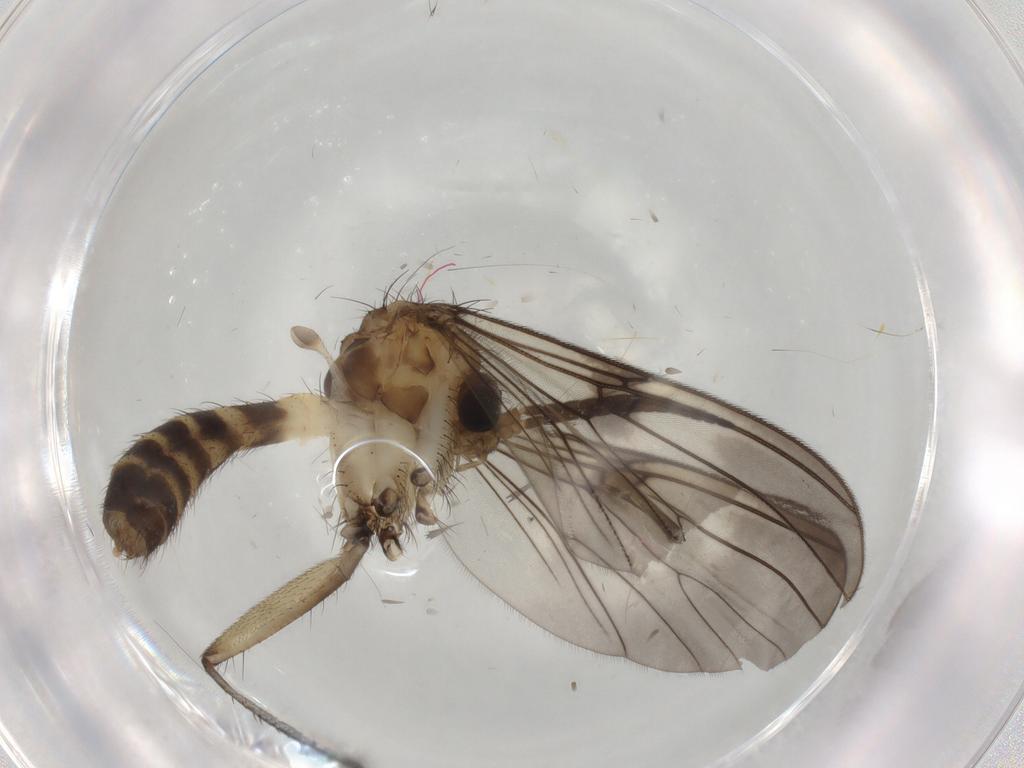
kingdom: Animalia
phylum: Arthropoda
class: Insecta
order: Diptera
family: Mycetophilidae
